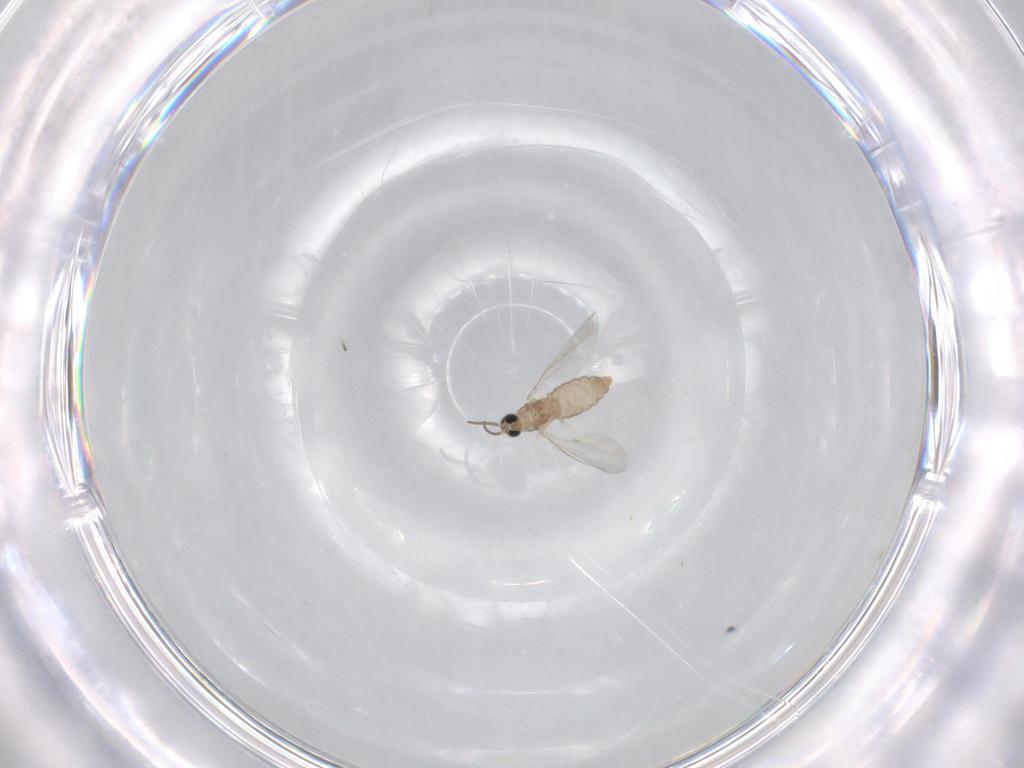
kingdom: Animalia
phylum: Arthropoda
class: Insecta
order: Diptera
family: Cecidomyiidae
